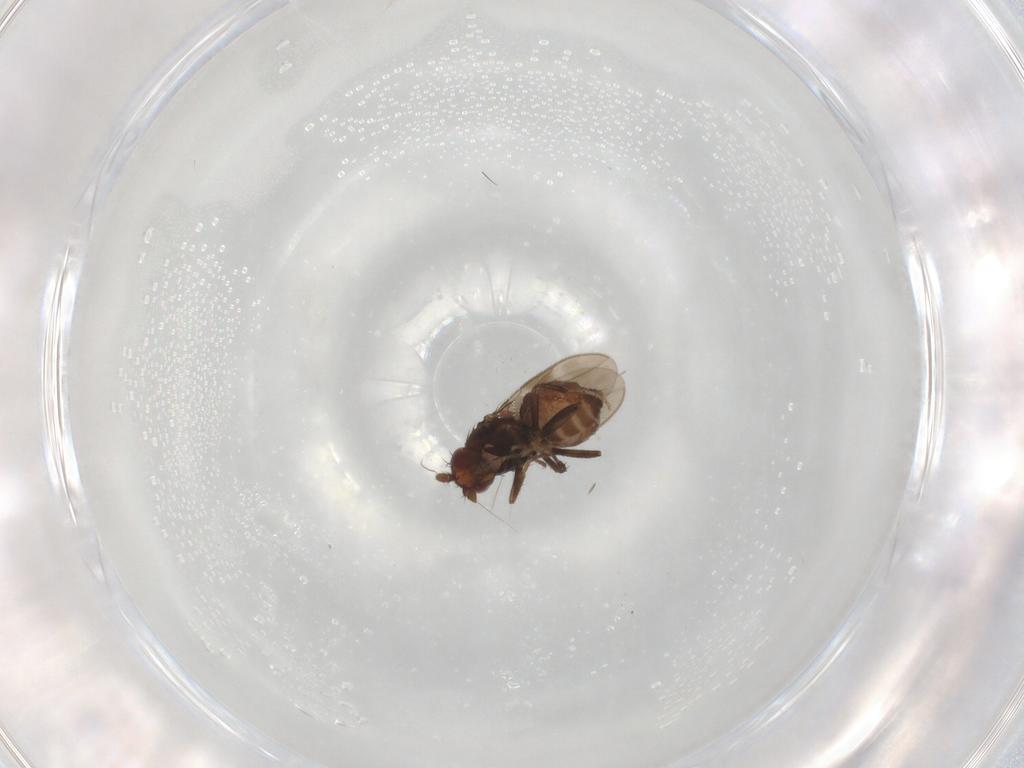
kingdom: Animalia
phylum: Arthropoda
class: Insecta
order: Diptera
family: Sphaeroceridae
